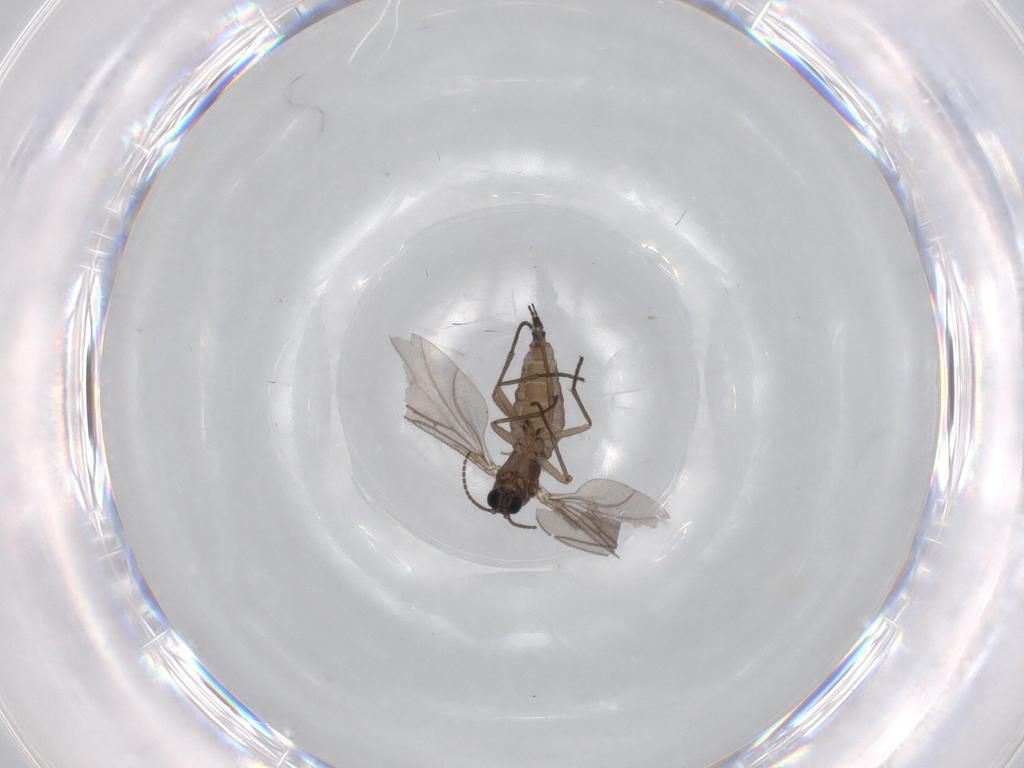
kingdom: Animalia
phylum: Arthropoda
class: Insecta
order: Diptera
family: Sciaridae
